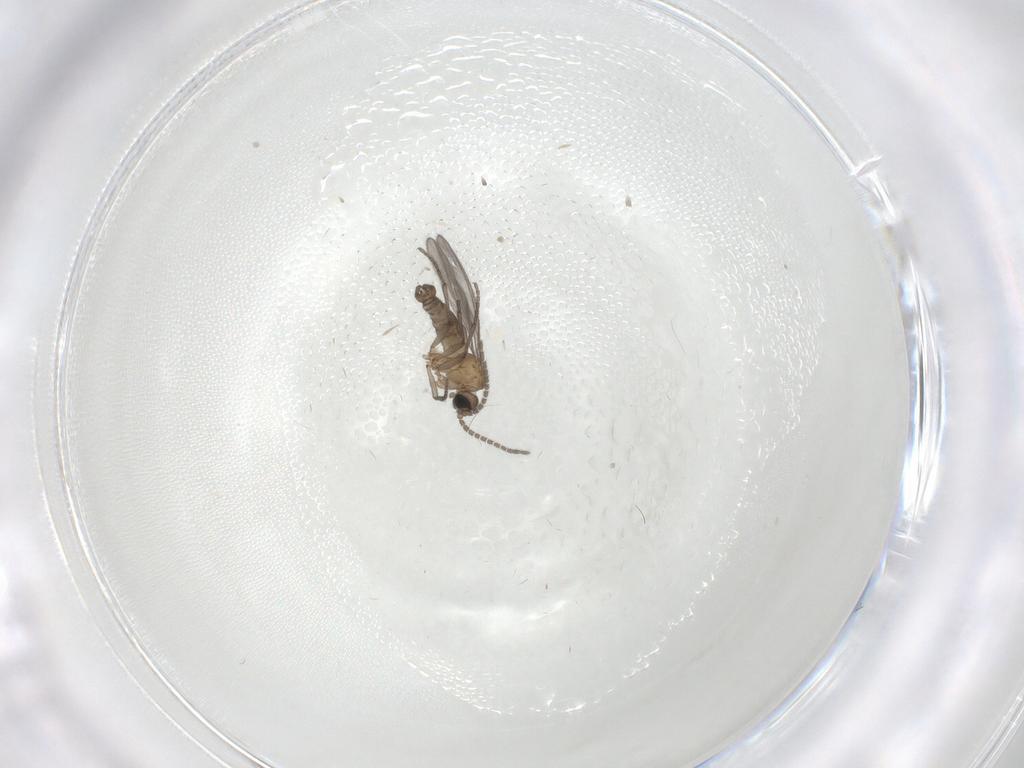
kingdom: Animalia
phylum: Arthropoda
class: Insecta
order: Diptera
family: Sciaridae
